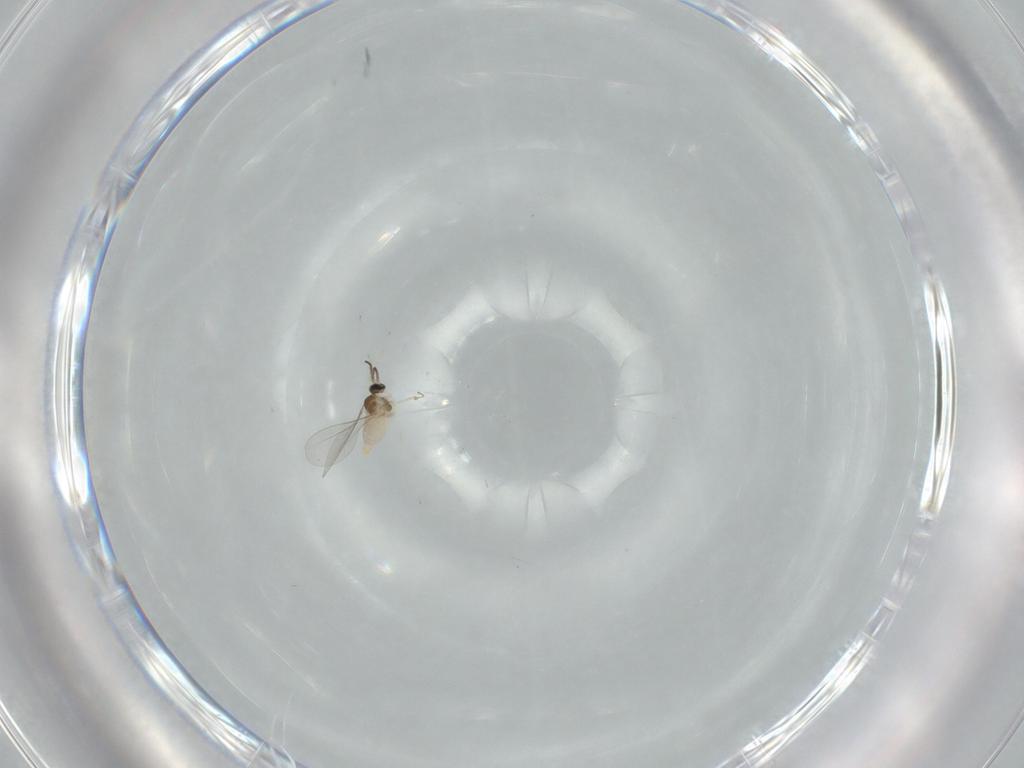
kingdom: Animalia
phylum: Arthropoda
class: Insecta
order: Diptera
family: Cecidomyiidae
